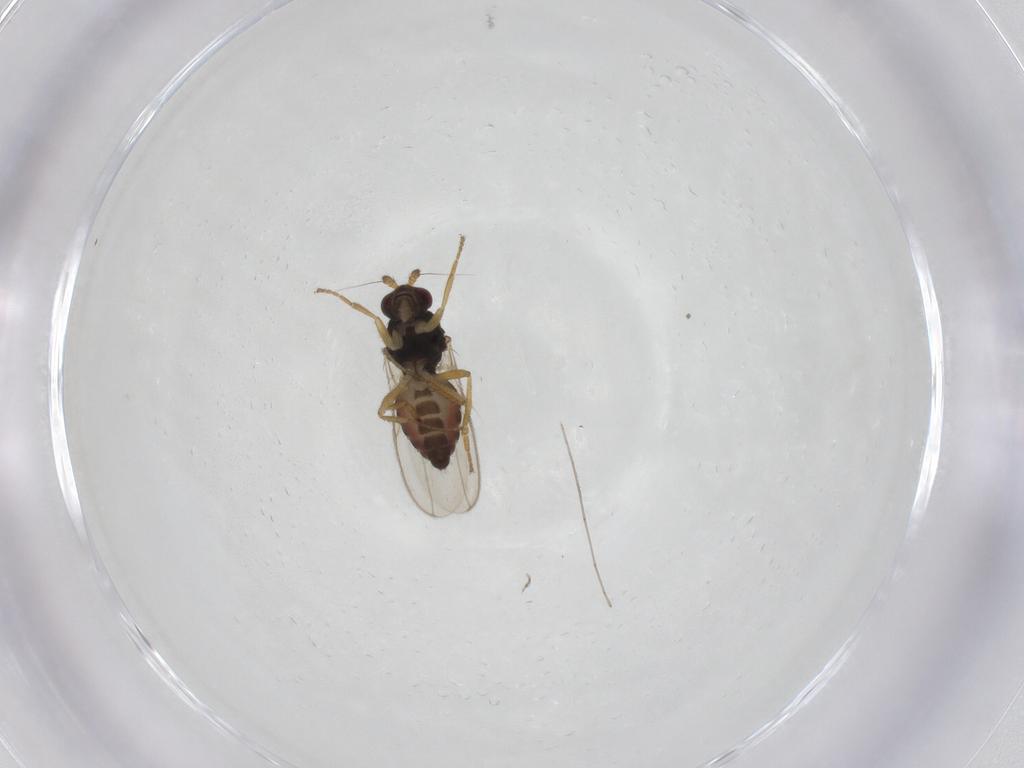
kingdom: Animalia
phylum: Arthropoda
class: Insecta
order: Diptera
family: Sphaeroceridae
